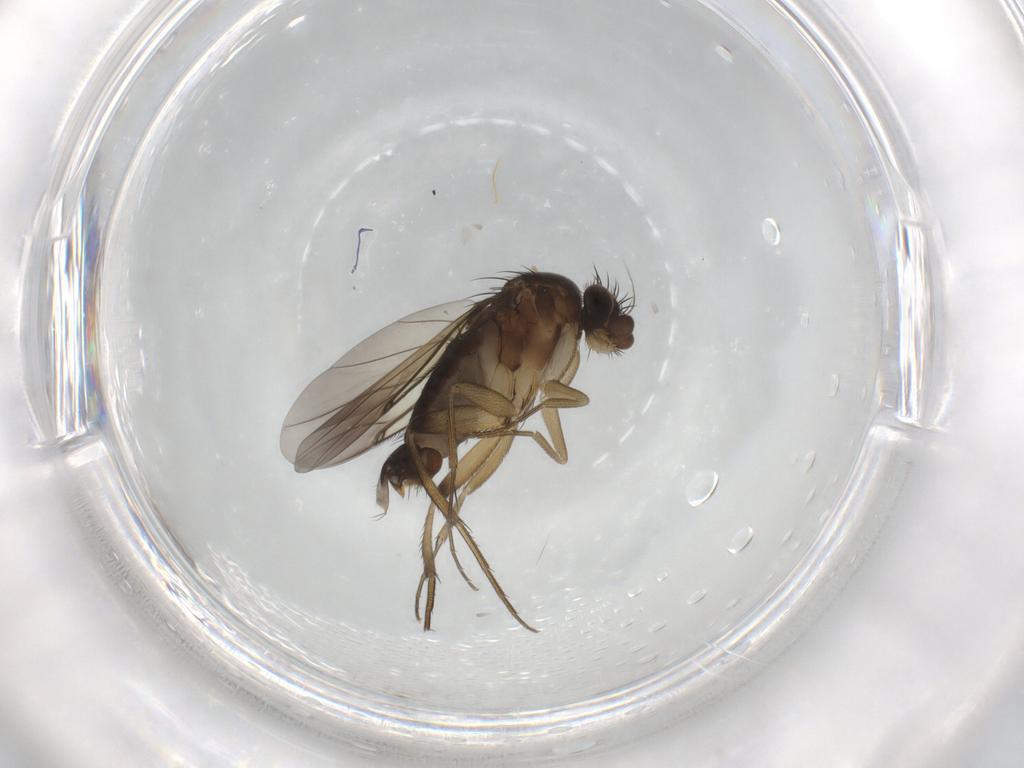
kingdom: Animalia
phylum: Arthropoda
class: Insecta
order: Diptera
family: Phoridae
